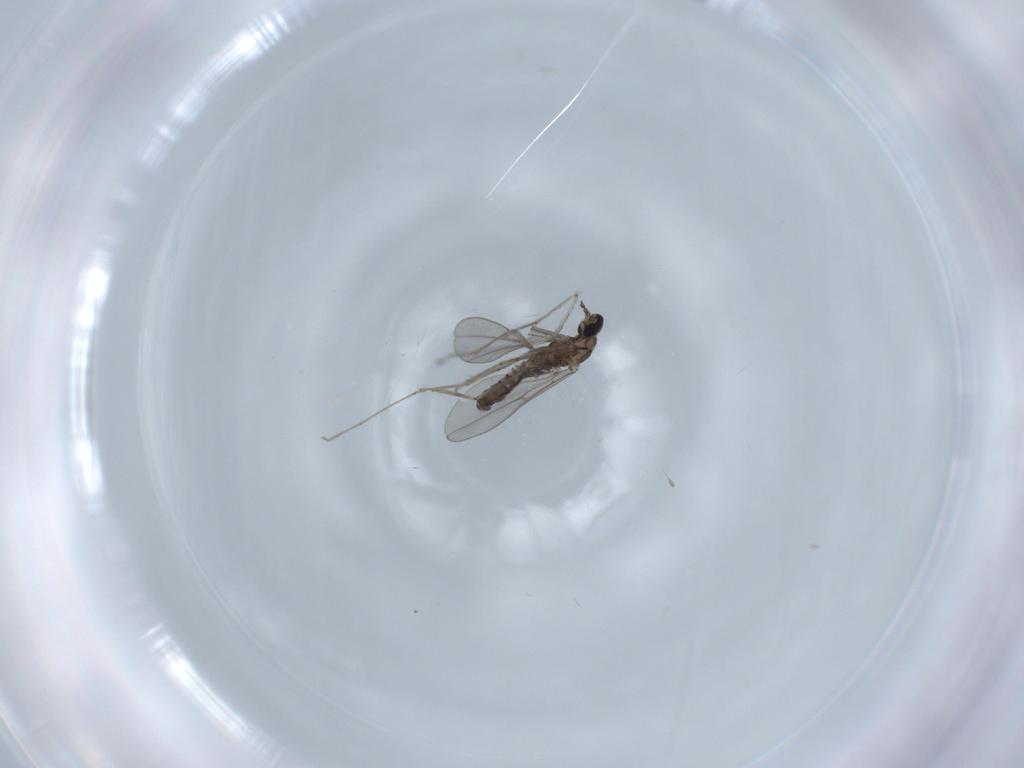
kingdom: Animalia
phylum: Arthropoda
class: Insecta
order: Diptera
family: Cecidomyiidae
